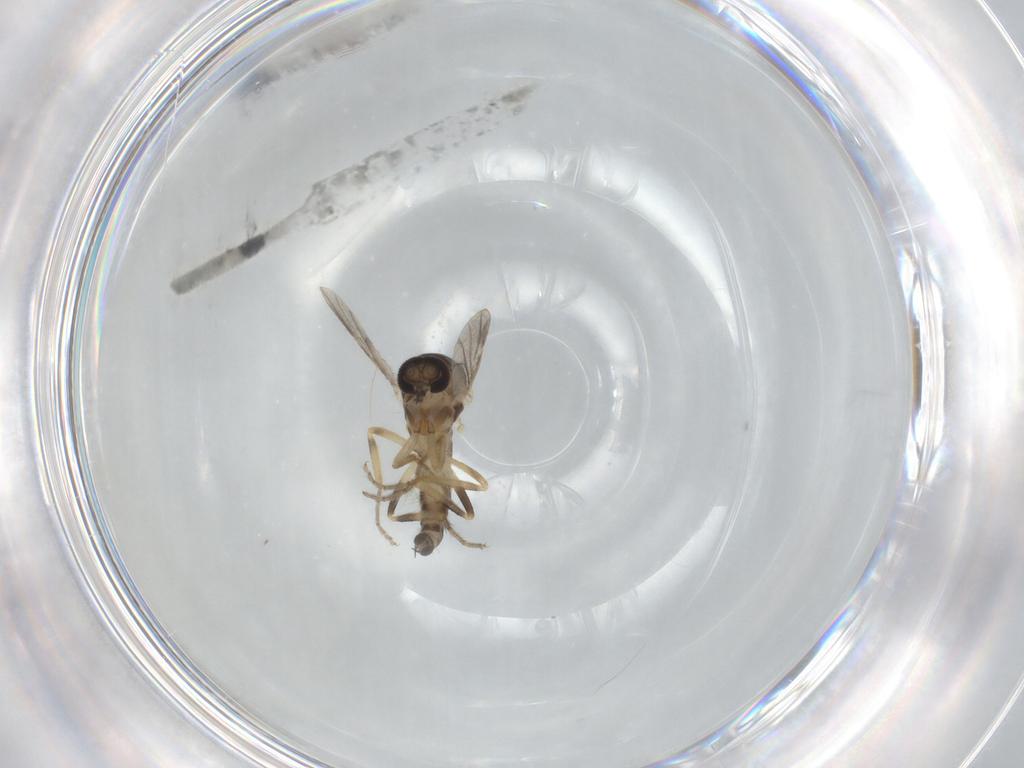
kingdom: Animalia
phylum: Arthropoda
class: Insecta
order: Diptera
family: Ceratopogonidae
